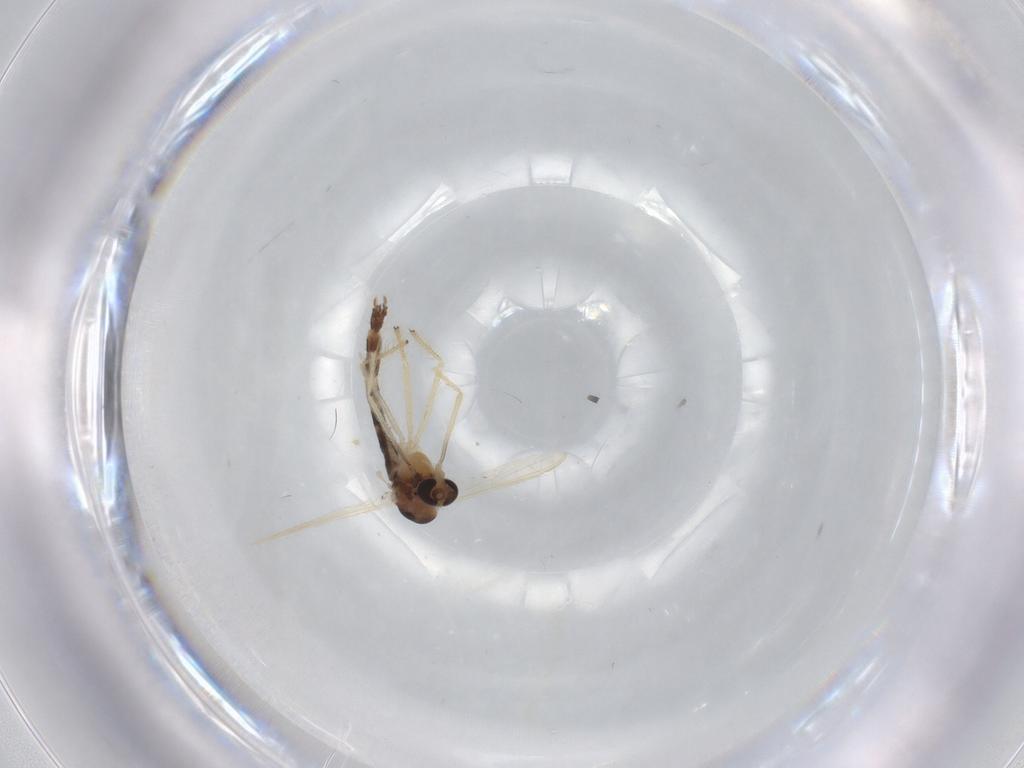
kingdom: Animalia
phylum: Arthropoda
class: Insecta
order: Diptera
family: Chironomidae
